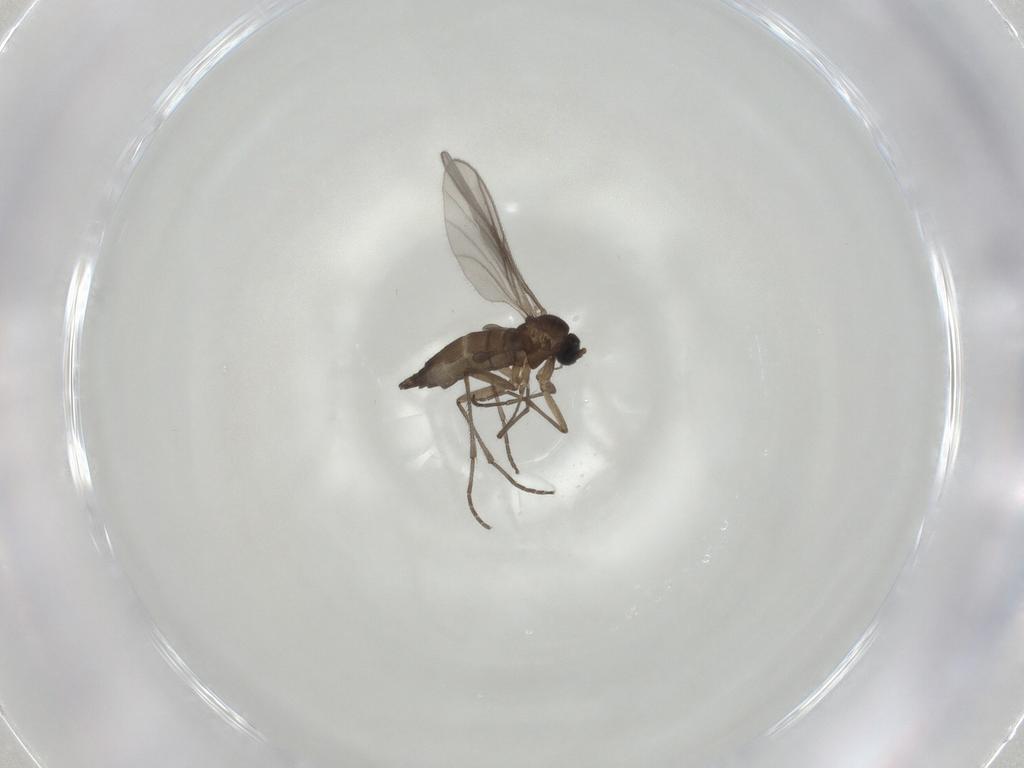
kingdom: Animalia
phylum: Arthropoda
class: Insecta
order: Diptera
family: Sciaridae
